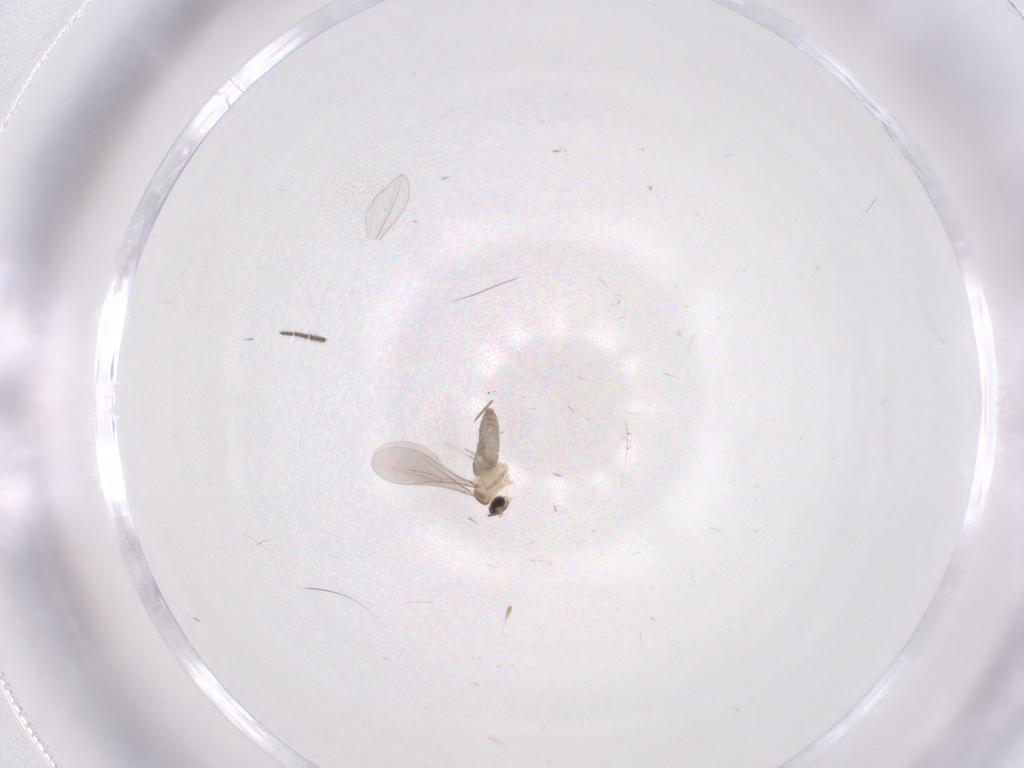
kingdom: Animalia
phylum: Arthropoda
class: Insecta
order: Diptera
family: Cecidomyiidae
